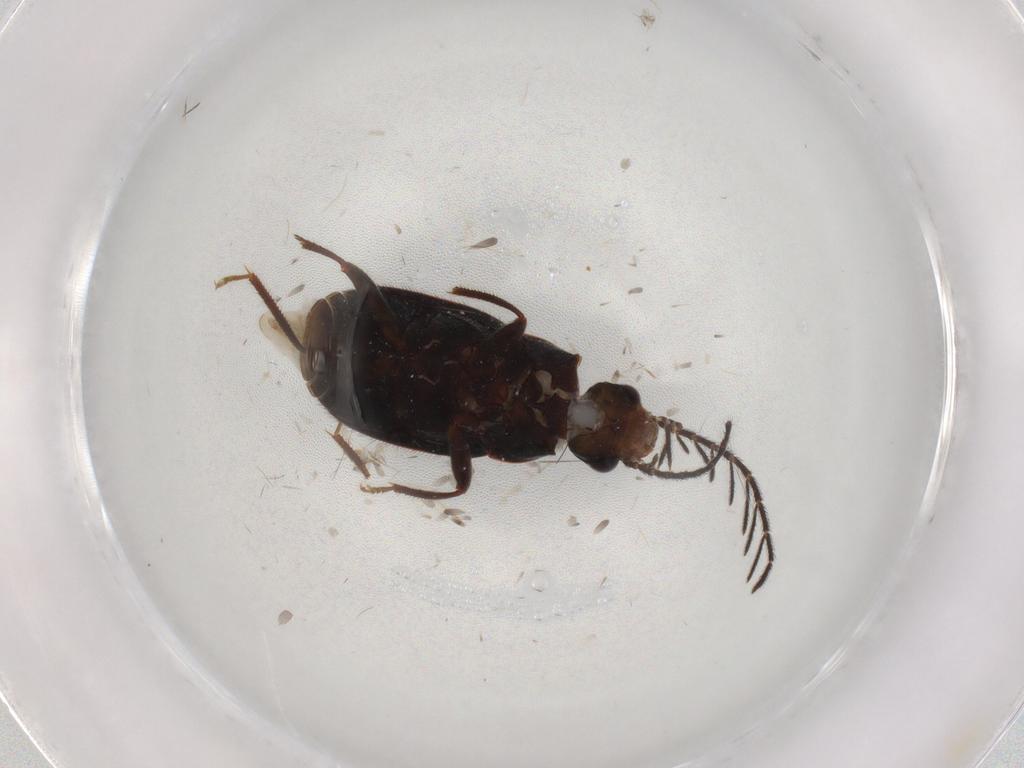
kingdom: Animalia
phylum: Arthropoda
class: Insecta
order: Coleoptera
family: Ptilodactylidae
